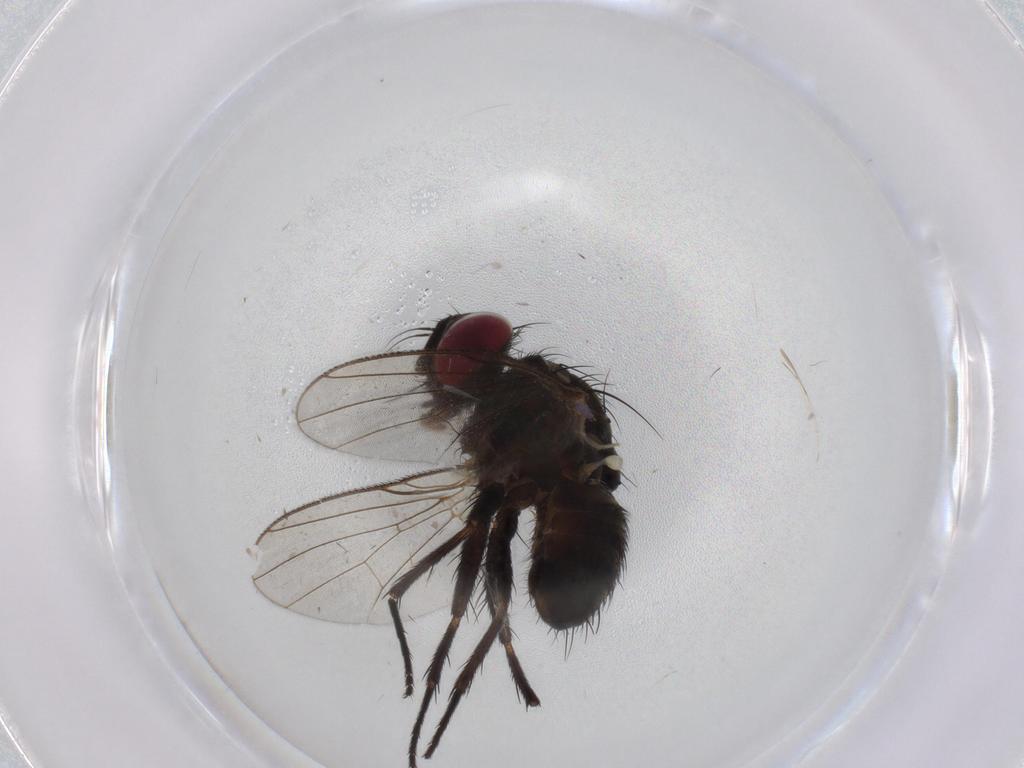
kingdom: Animalia
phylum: Arthropoda
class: Insecta
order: Diptera
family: Muscidae
